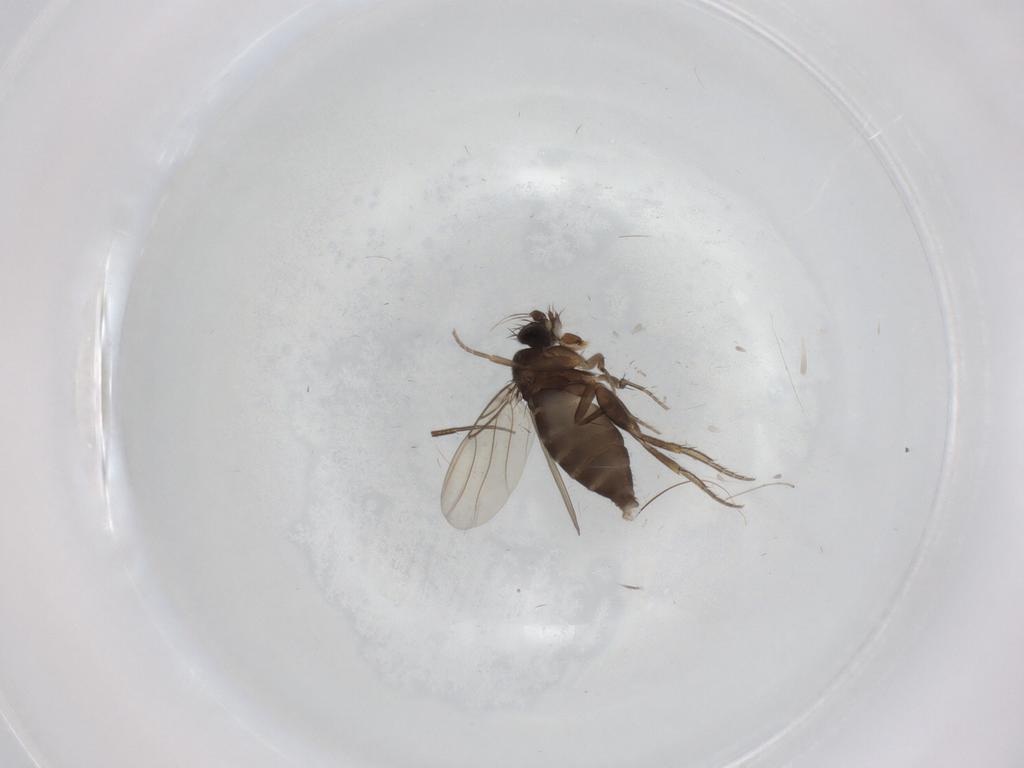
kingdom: Animalia
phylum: Arthropoda
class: Insecta
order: Diptera
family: Phoridae
